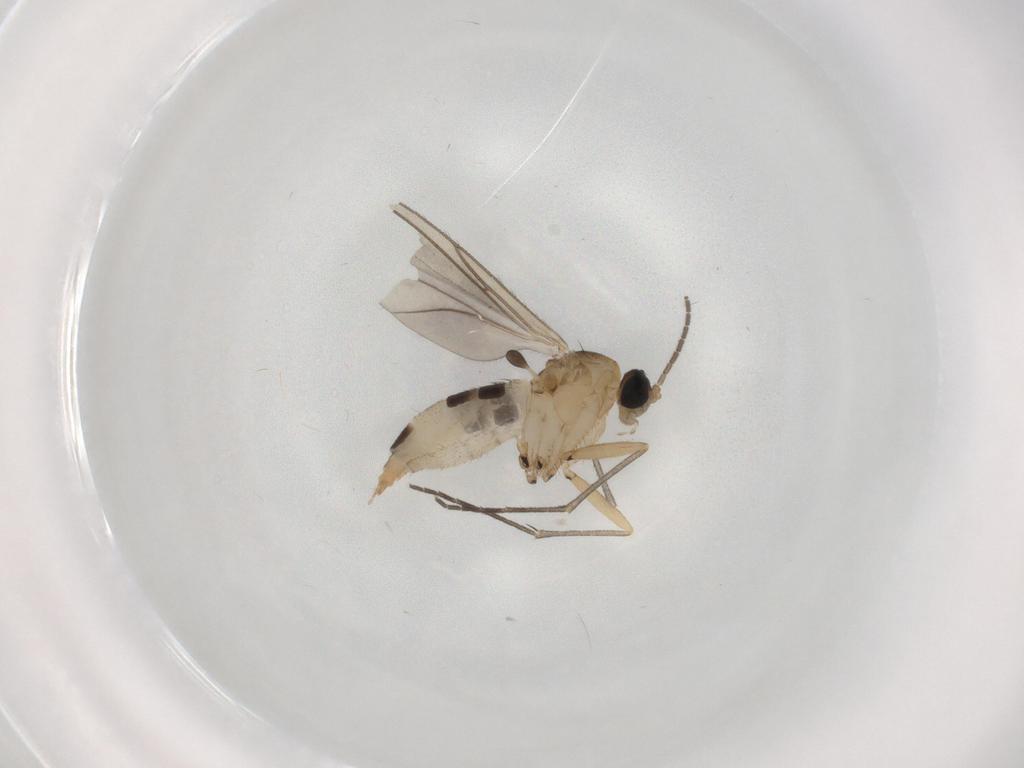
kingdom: Animalia
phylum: Arthropoda
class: Insecta
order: Diptera
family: Sciaridae
